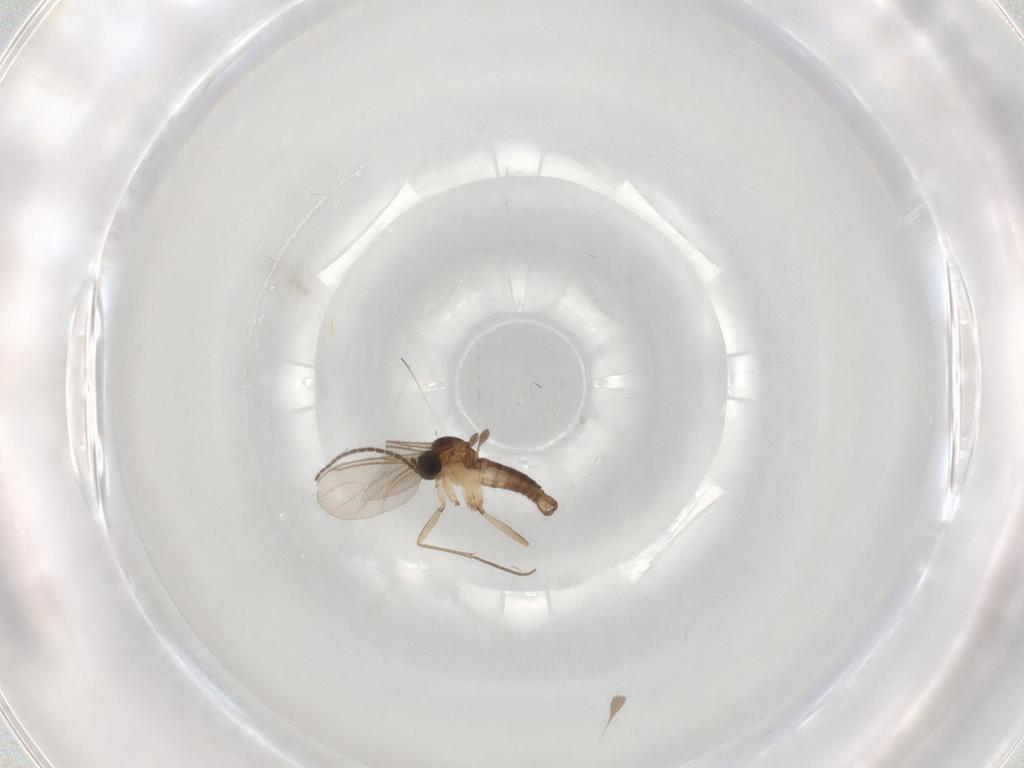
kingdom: Animalia
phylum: Arthropoda
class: Insecta
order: Diptera
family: Sciaridae
